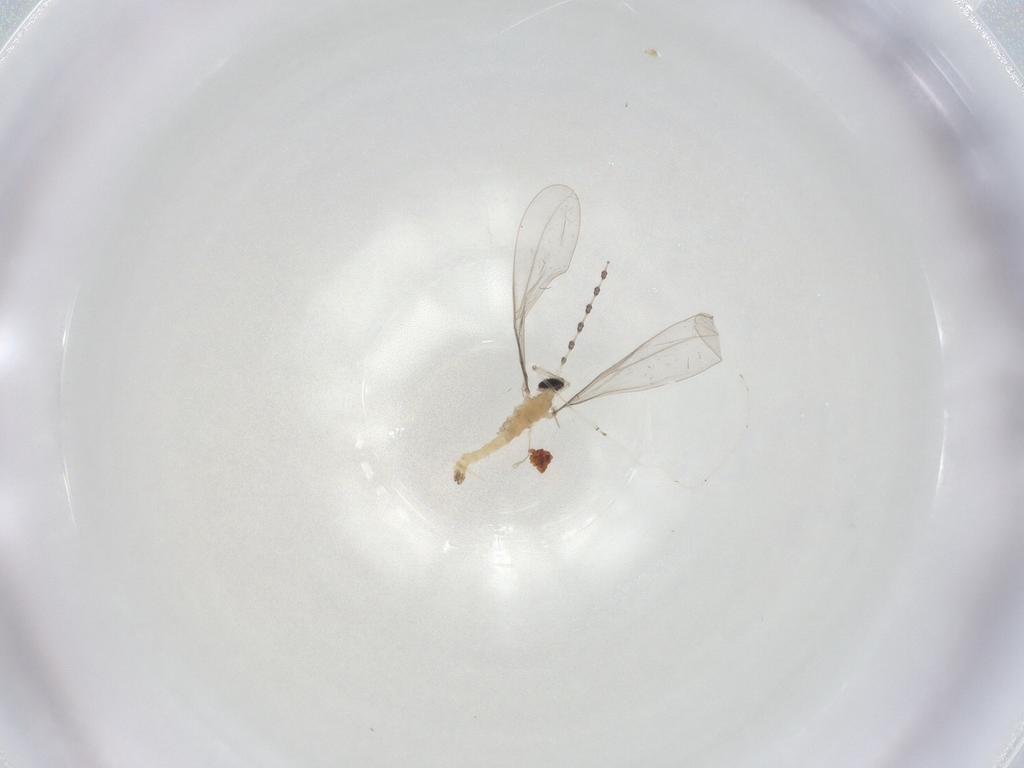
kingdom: Animalia
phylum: Arthropoda
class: Insecta
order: Diptera
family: Cecidomyiidae
